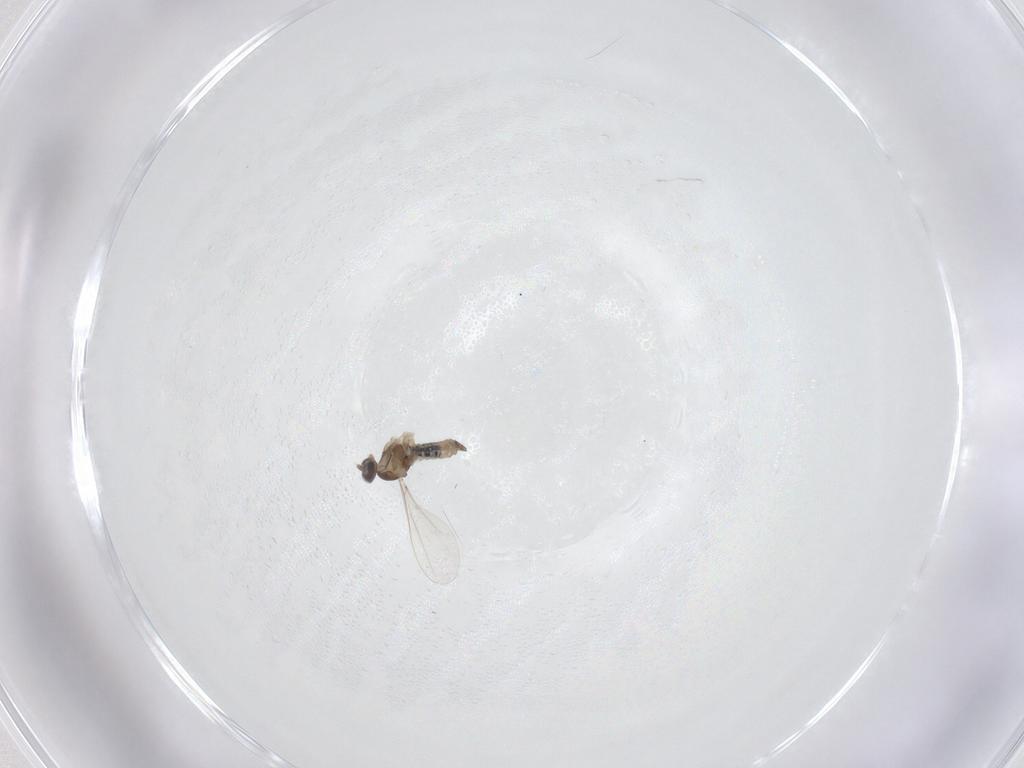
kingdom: Animalia
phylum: Arthropoda
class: Insecta
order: Diptera
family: Cecidomyiidae
